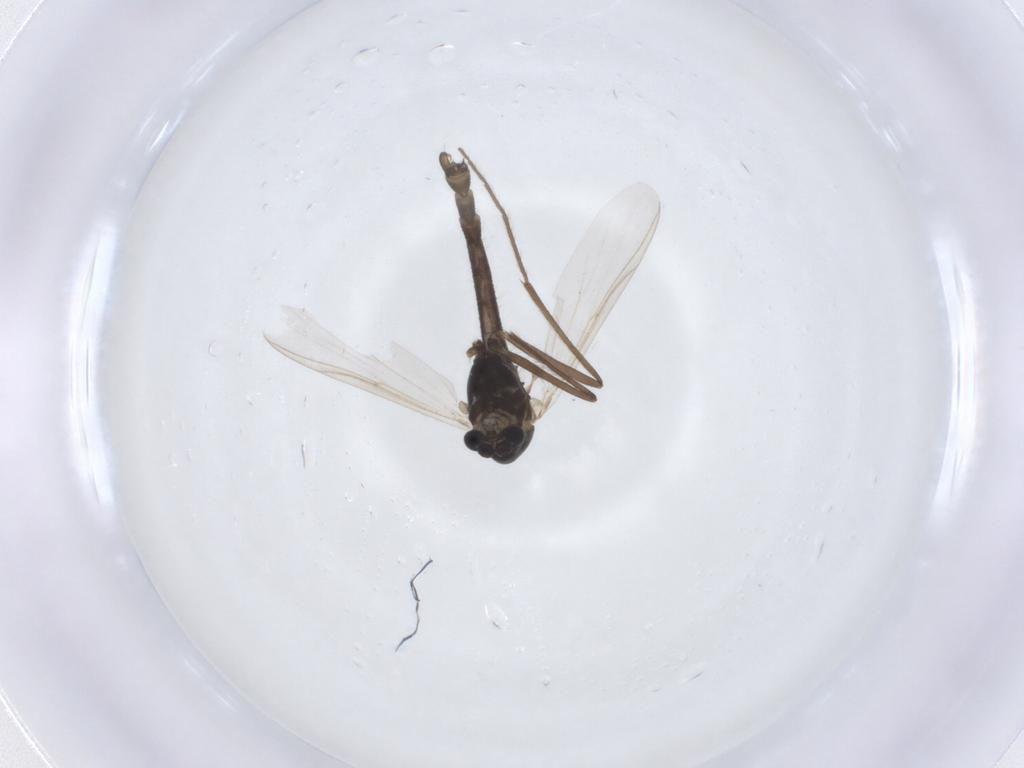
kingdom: Animalia
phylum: Arthropoda
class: Insecta
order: Diptera
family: Chironomidae
